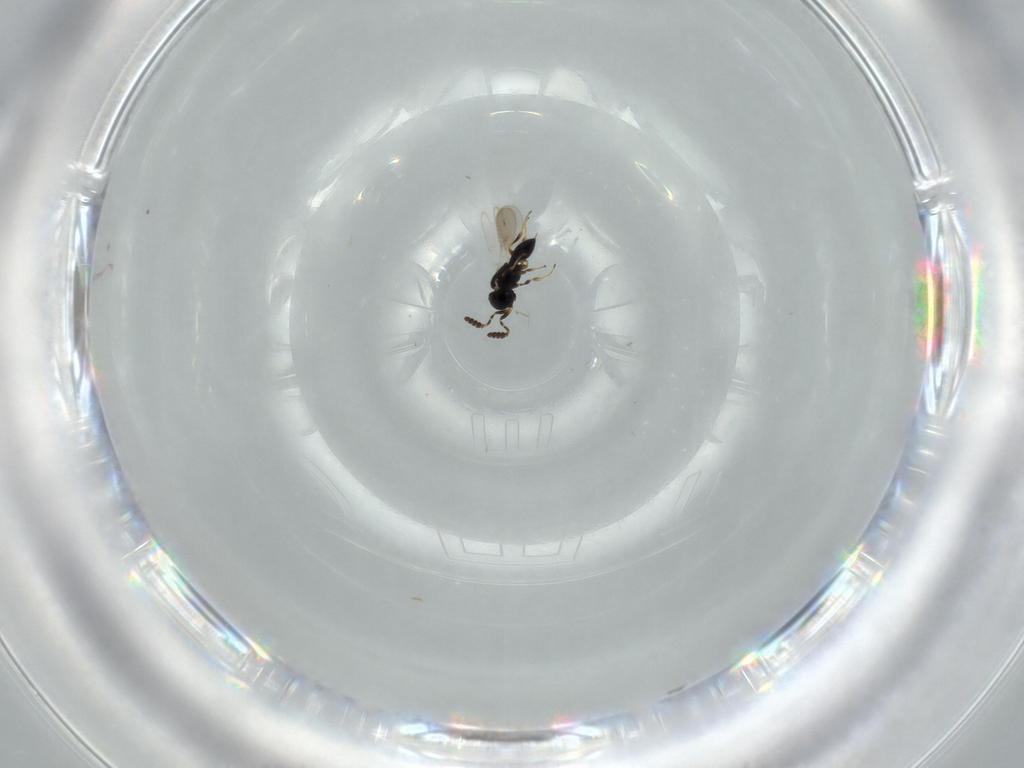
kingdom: Animalia
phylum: Arthropoda
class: Insecta
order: Hymenoptera
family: Scelionidae
